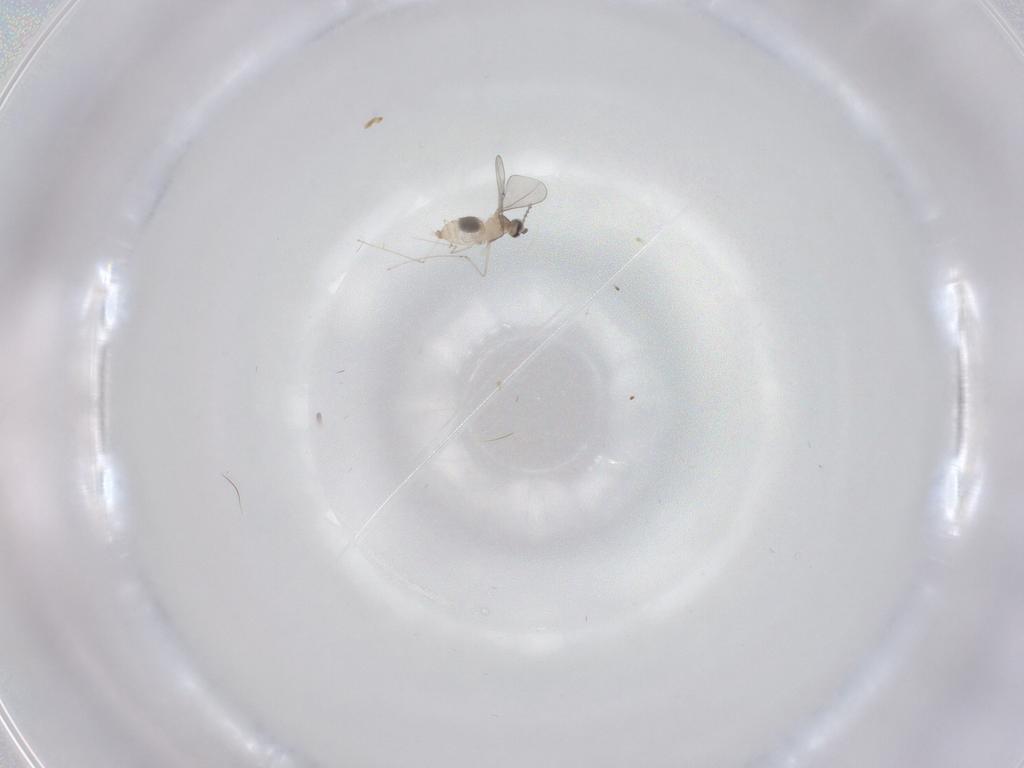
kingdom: Animalia
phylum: Arthropoda
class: Insecta
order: Diptera
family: Cecidomyiidae
